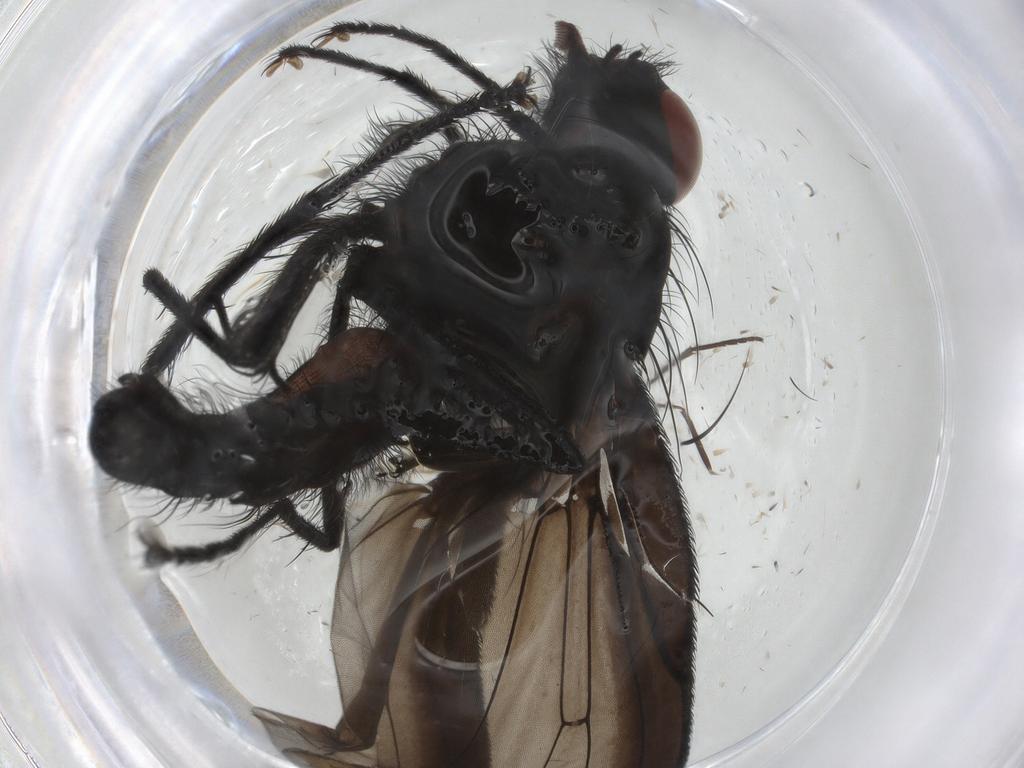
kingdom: Animalia
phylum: Arthropoda
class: Insecta
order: Diptera
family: Anthomyiidae
